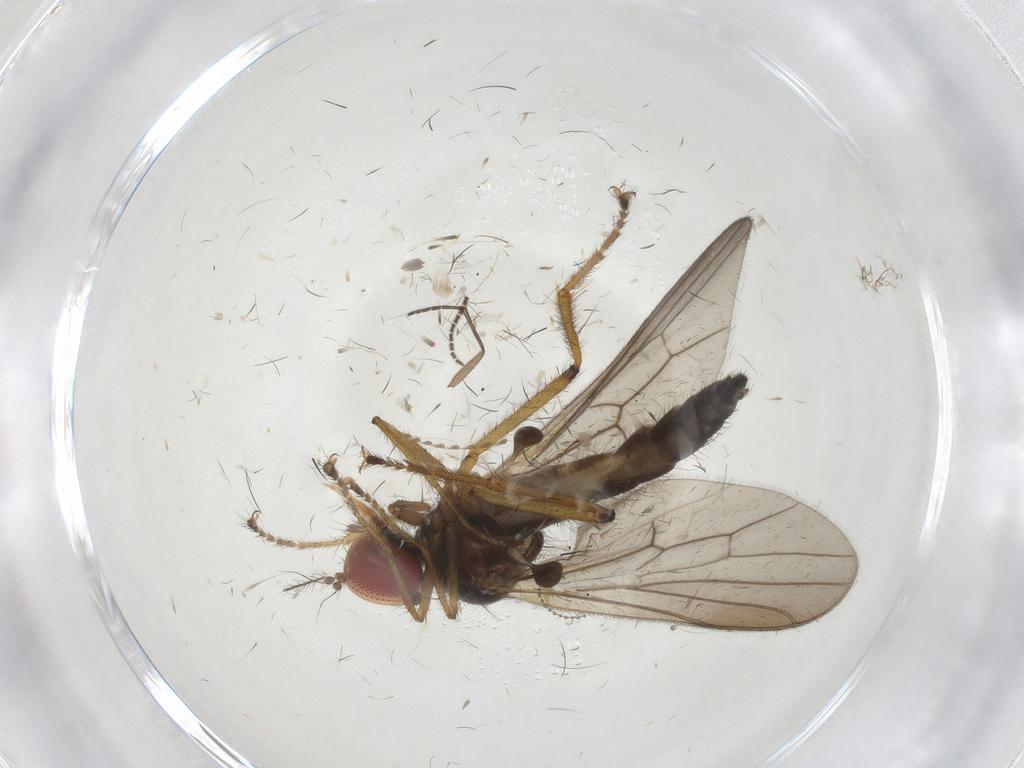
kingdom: Animalia
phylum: Arthropoda
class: Insecta
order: Diptera
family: Hybotidae
